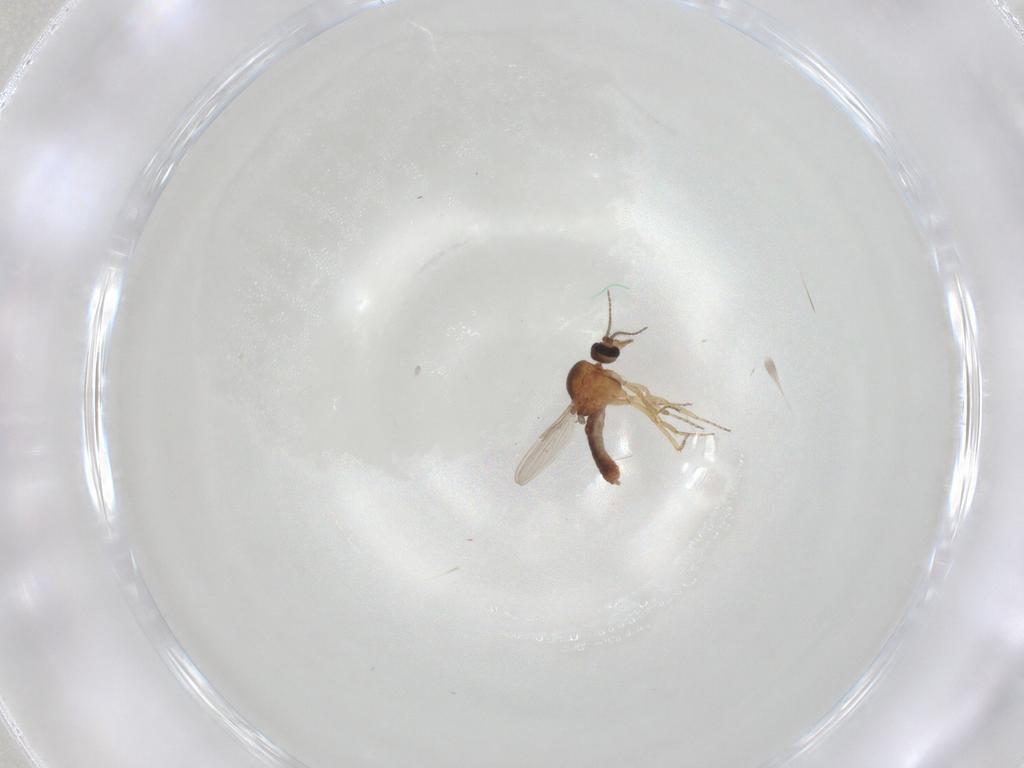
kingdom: Animalia
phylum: Arthropoda
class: Insecta
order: Diptera
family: Ceratopogonidae
